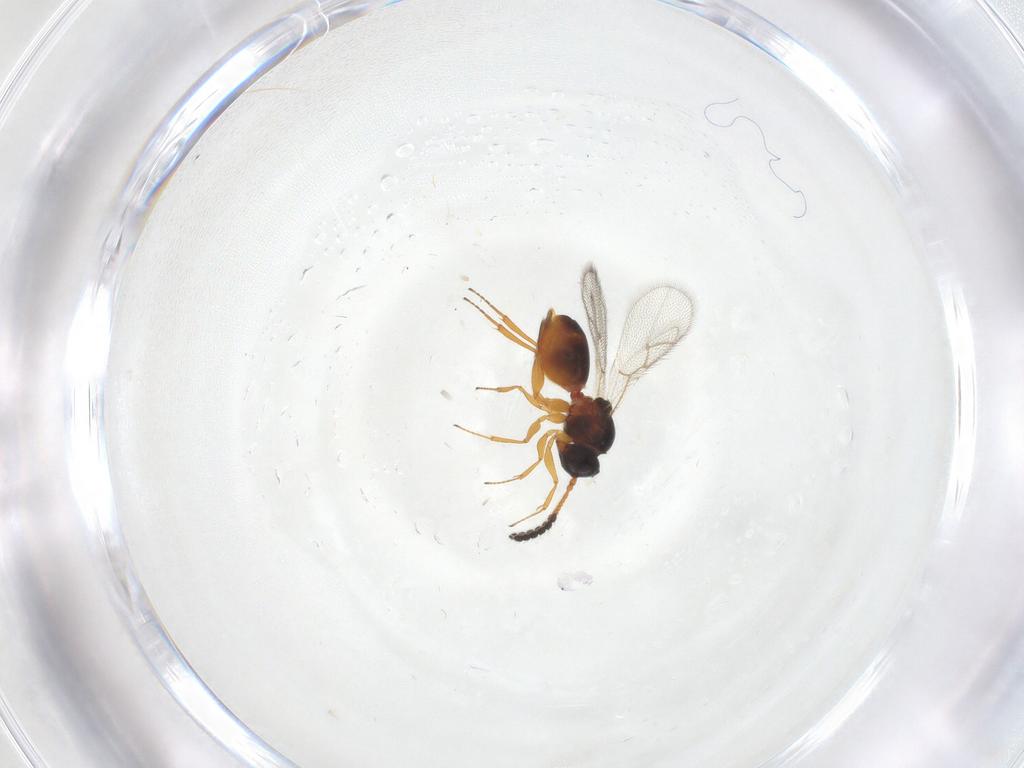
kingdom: Animalia
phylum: Arthropoda
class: Insecta
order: Hymenoptera
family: Figitidae
